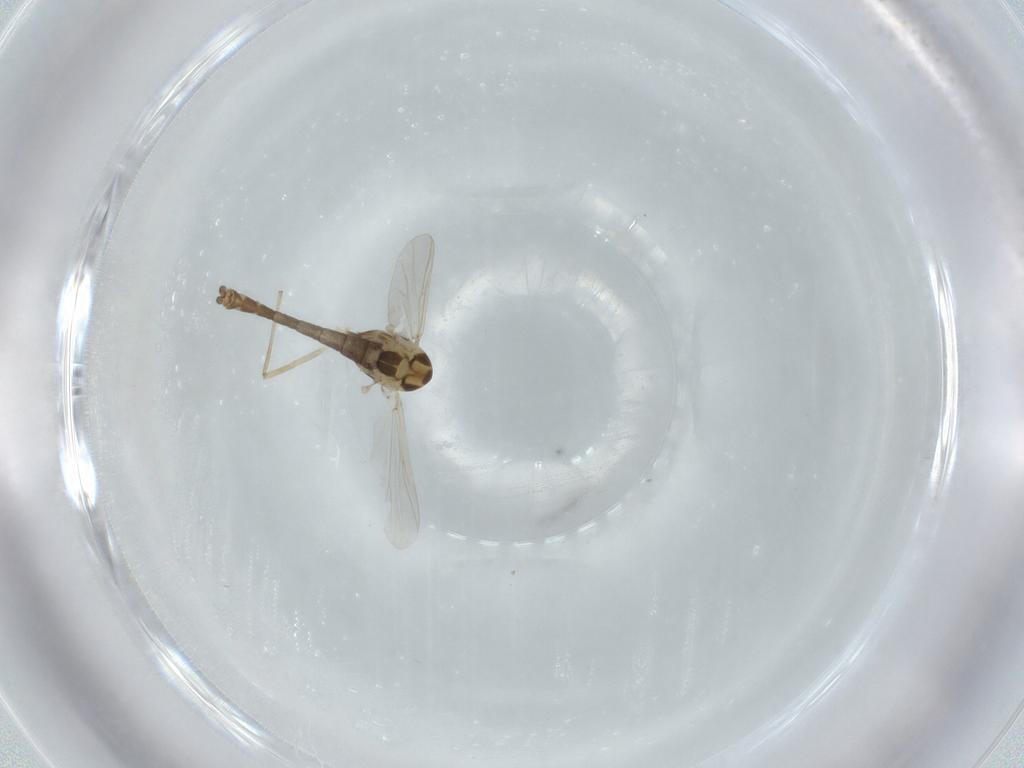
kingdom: Animalia
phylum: Arthropoda
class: Insecta
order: Diptera
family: Chironomidae
